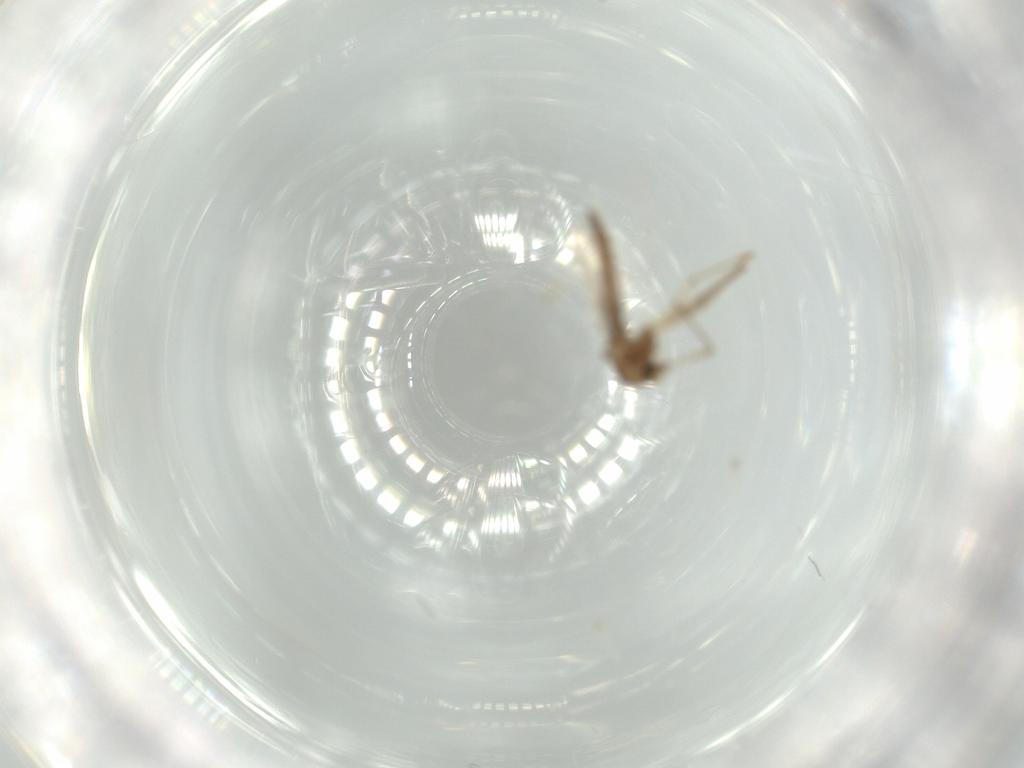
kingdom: Animalia
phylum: Arthropoda
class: Insecta
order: Diptera
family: Chironomidae
